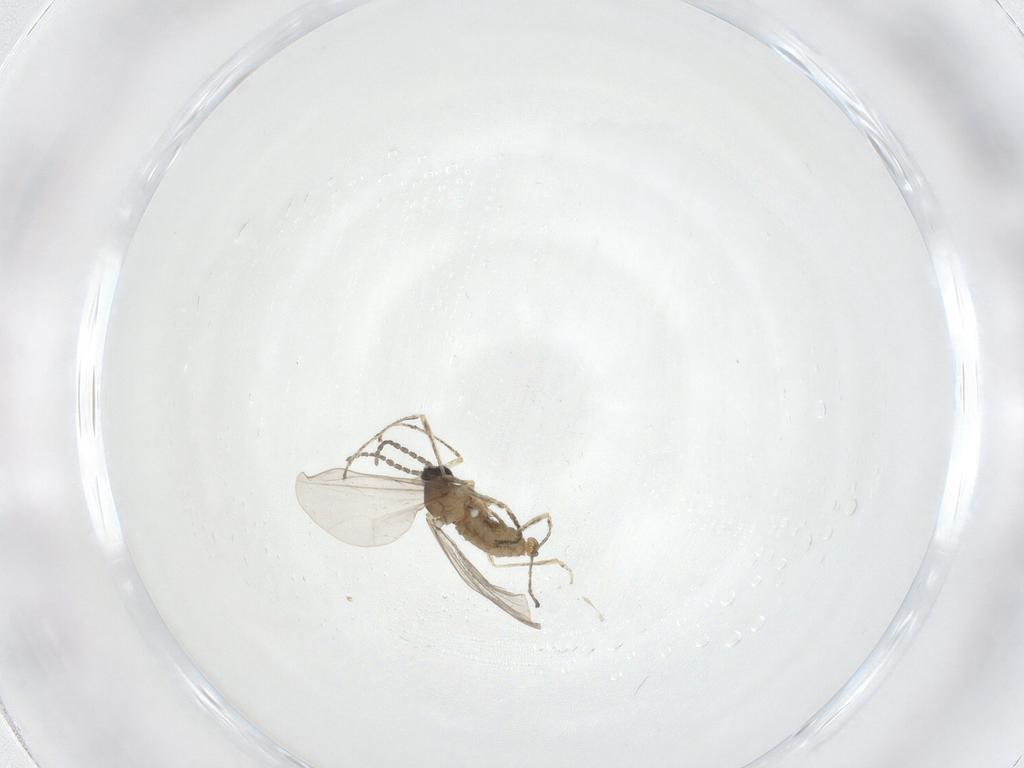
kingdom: Animalia
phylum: Arthropoda
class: Insecta
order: Diptera
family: Cecidomyiidae
